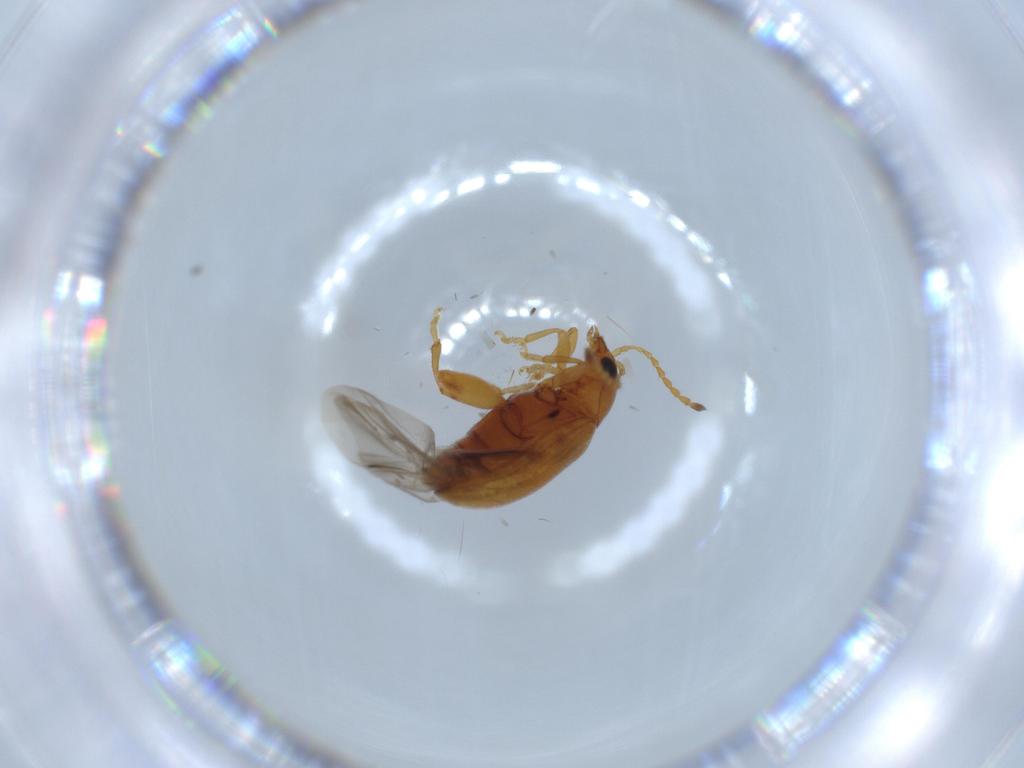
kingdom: Animalia
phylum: Arthropoda
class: Insecta
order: Coleoptera
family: Chrysomelidae
